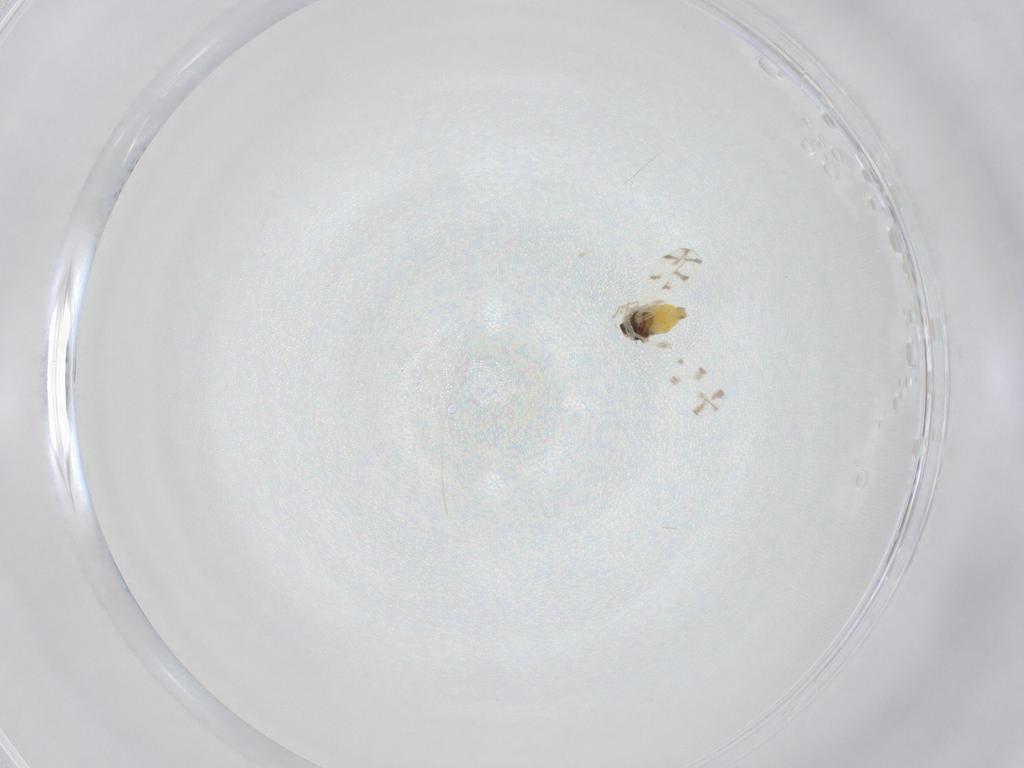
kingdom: Animalia
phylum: Arthropoda
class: Insecta
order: Hemiptera
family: Aleyrodidae
